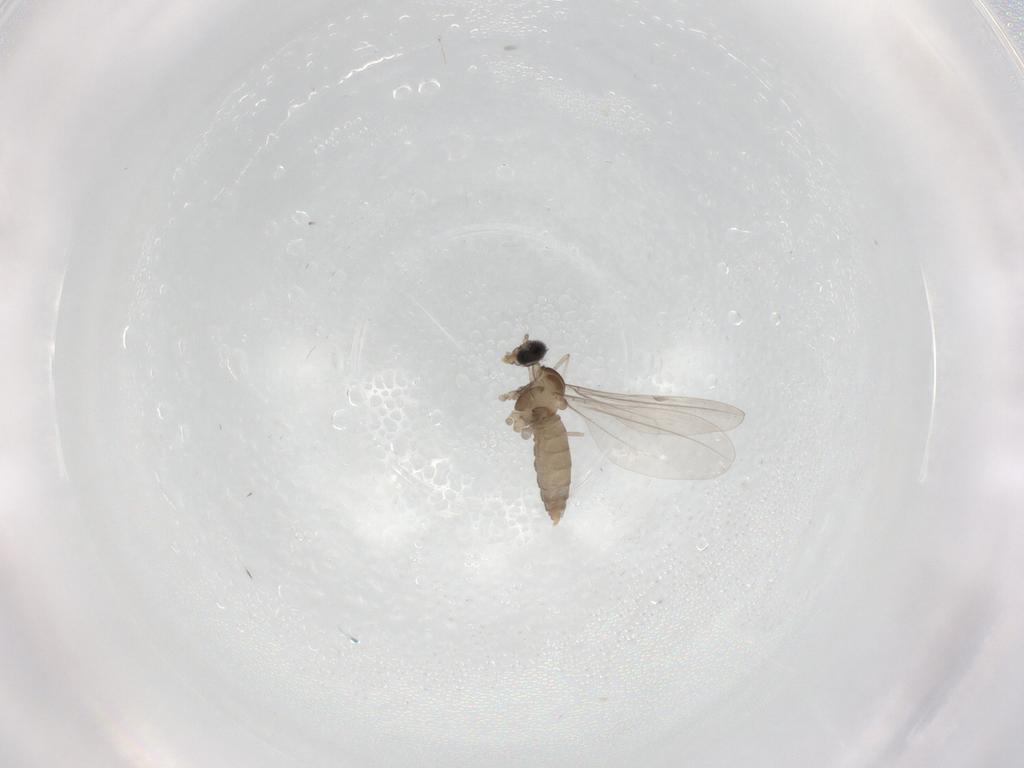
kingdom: Animalia
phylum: Arthropoda
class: Insecta
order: Diptera
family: Cecidomyiidae
